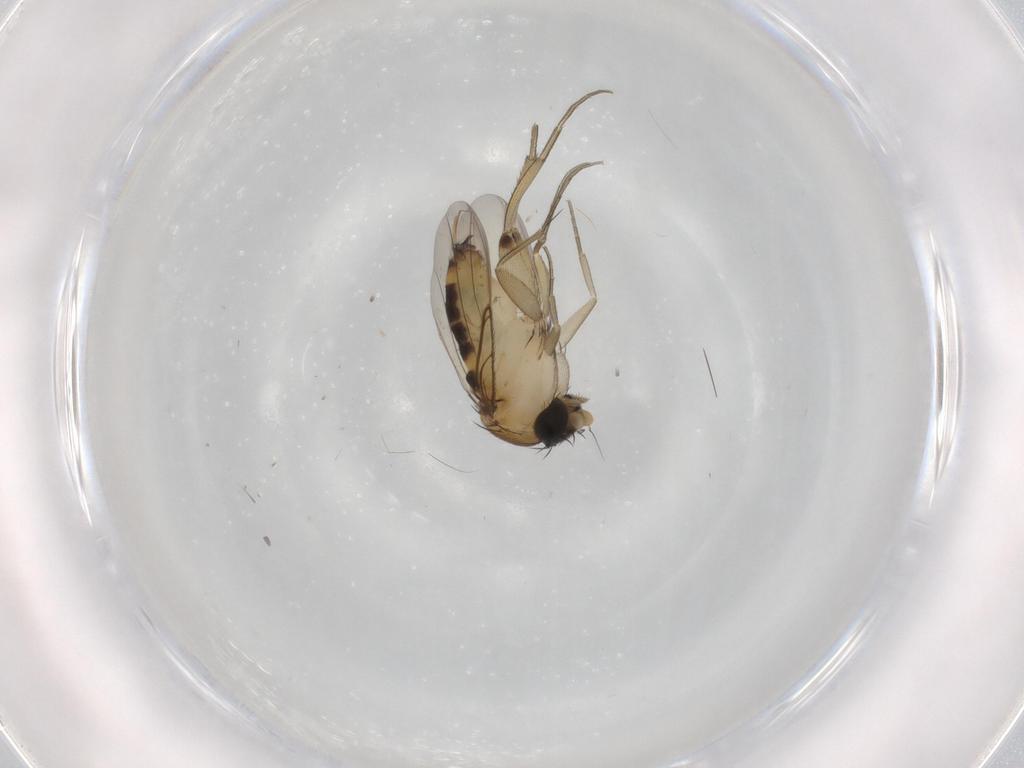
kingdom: Animalia
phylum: Arthropoda
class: Insecta
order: Diptera
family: Phoridae
